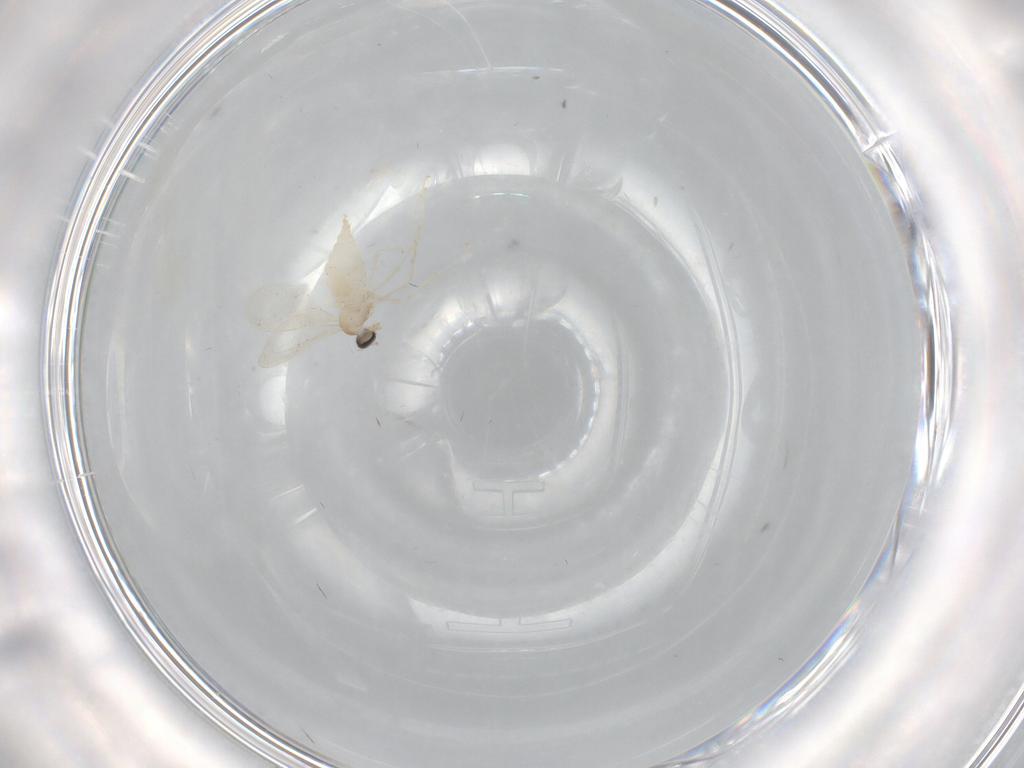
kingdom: Animalia
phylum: Arthropoda
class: Insecta
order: Diptera
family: Cecidomyiidae
